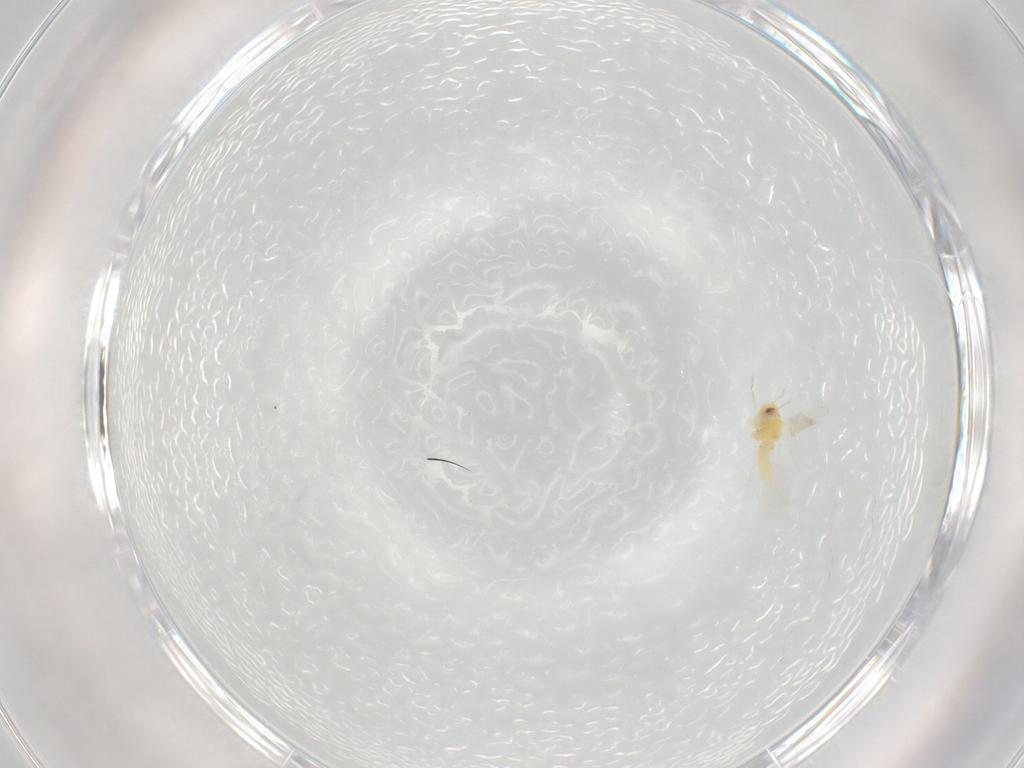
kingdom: Animalia
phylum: Arthropoda
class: Insecta
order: Hemiptera
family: Aleyrodidae
